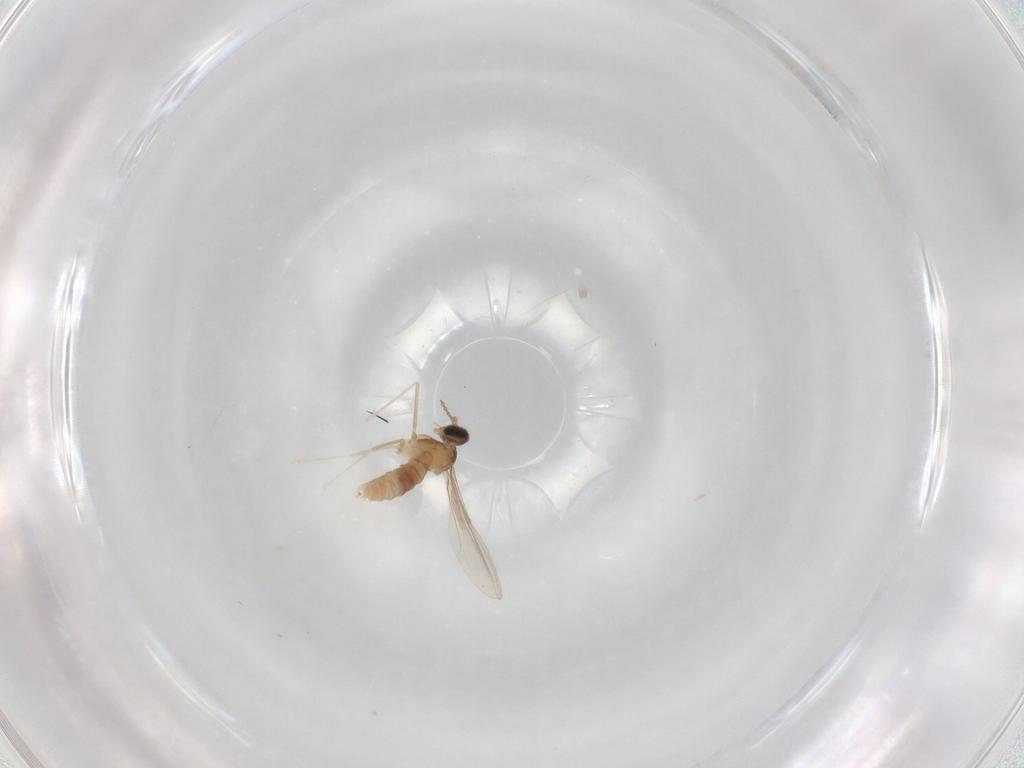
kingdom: Animalia
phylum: Arthropoda
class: Insecta
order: Diptera
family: Cecidomyiidae
